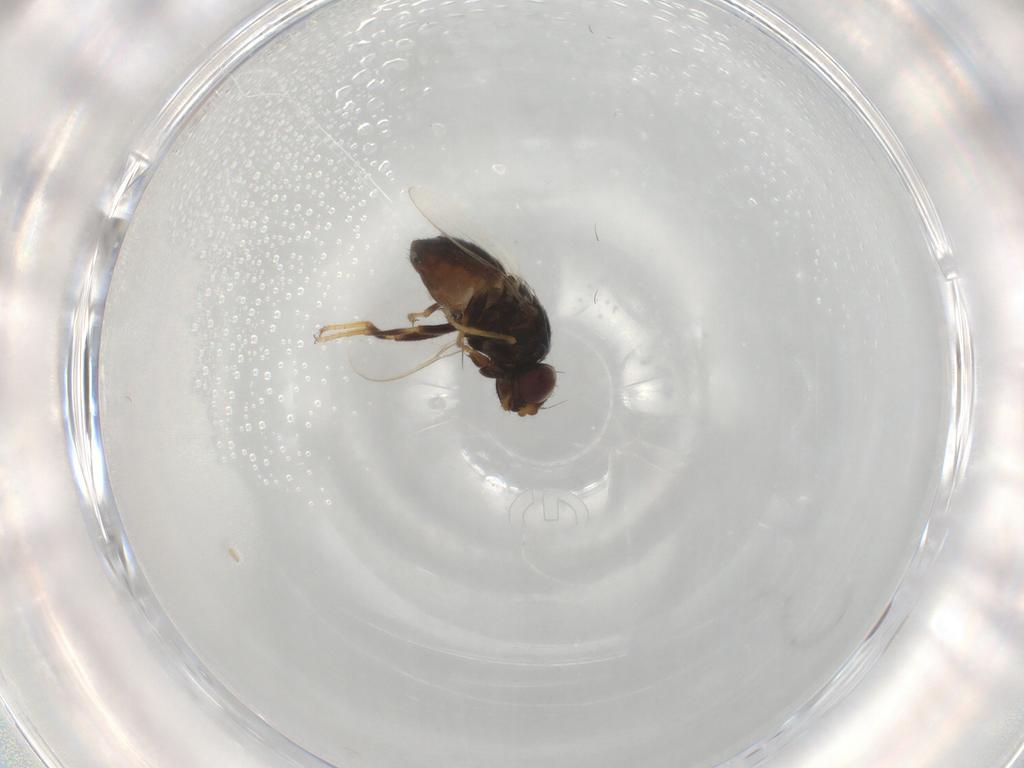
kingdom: Animalia
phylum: Arthropoda
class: Insecta
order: Diptera
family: Chloropidae
